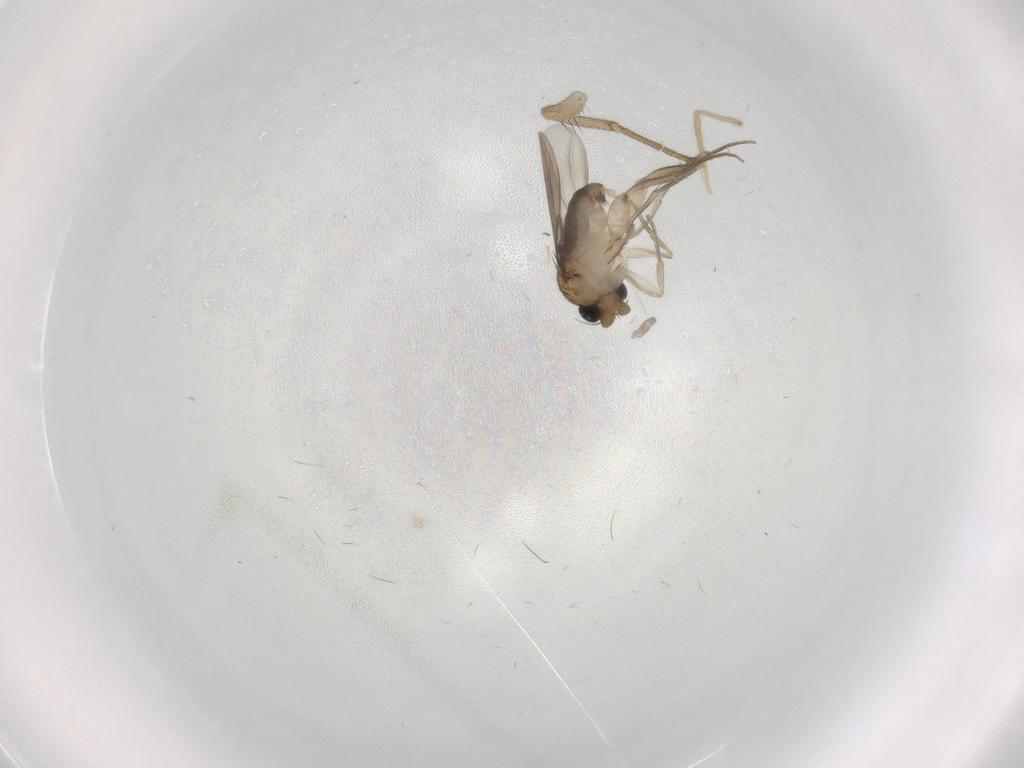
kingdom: Animalia
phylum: Arthropoda
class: Insecta
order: Diptera
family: Phoridae
